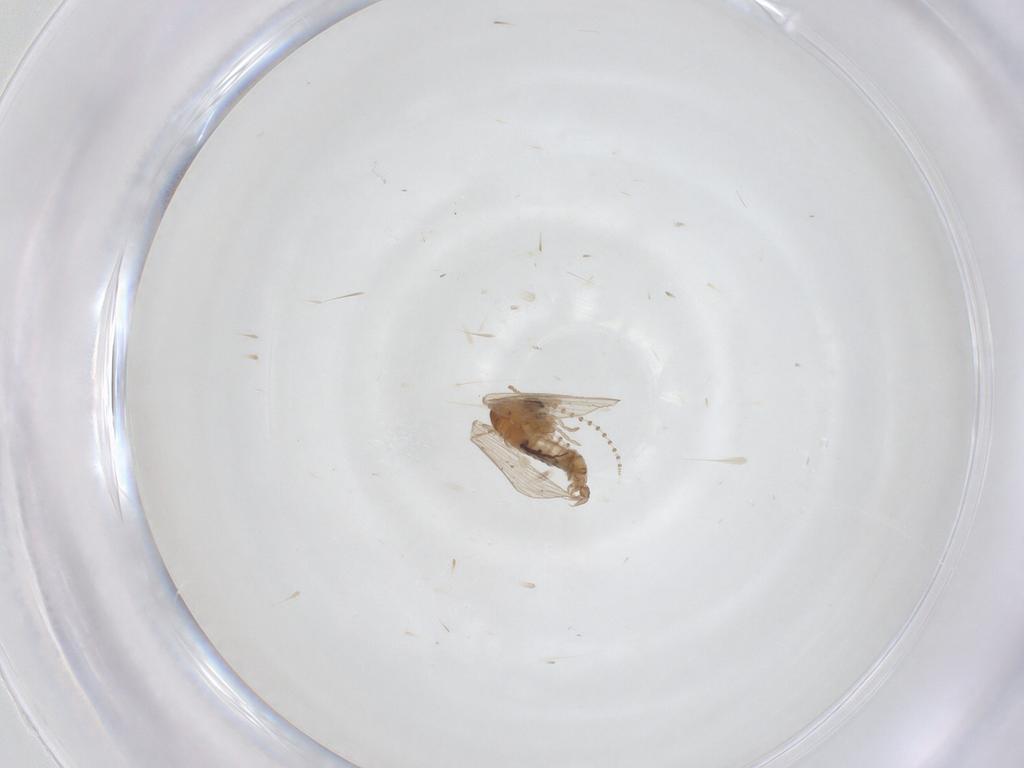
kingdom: Animalia
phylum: Arthropoda
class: Insecta
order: Diptera
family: Psychodidae
